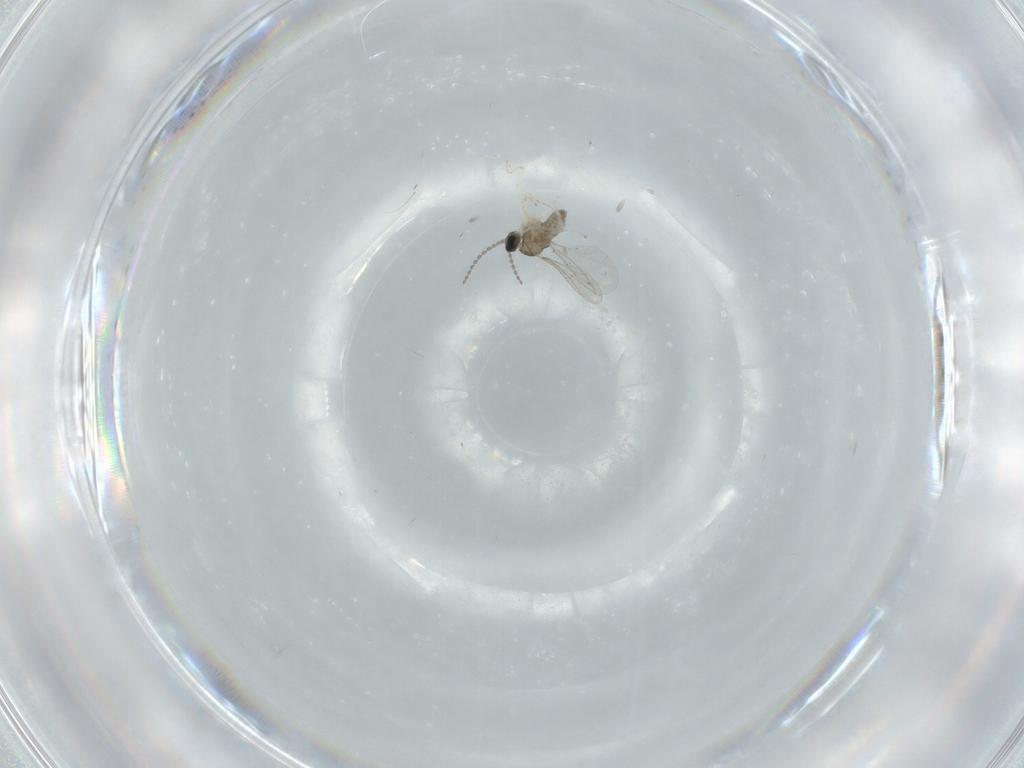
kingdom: Animalia
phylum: Arthropoda
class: Insecta
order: Diptera
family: Cecidomyiidae
